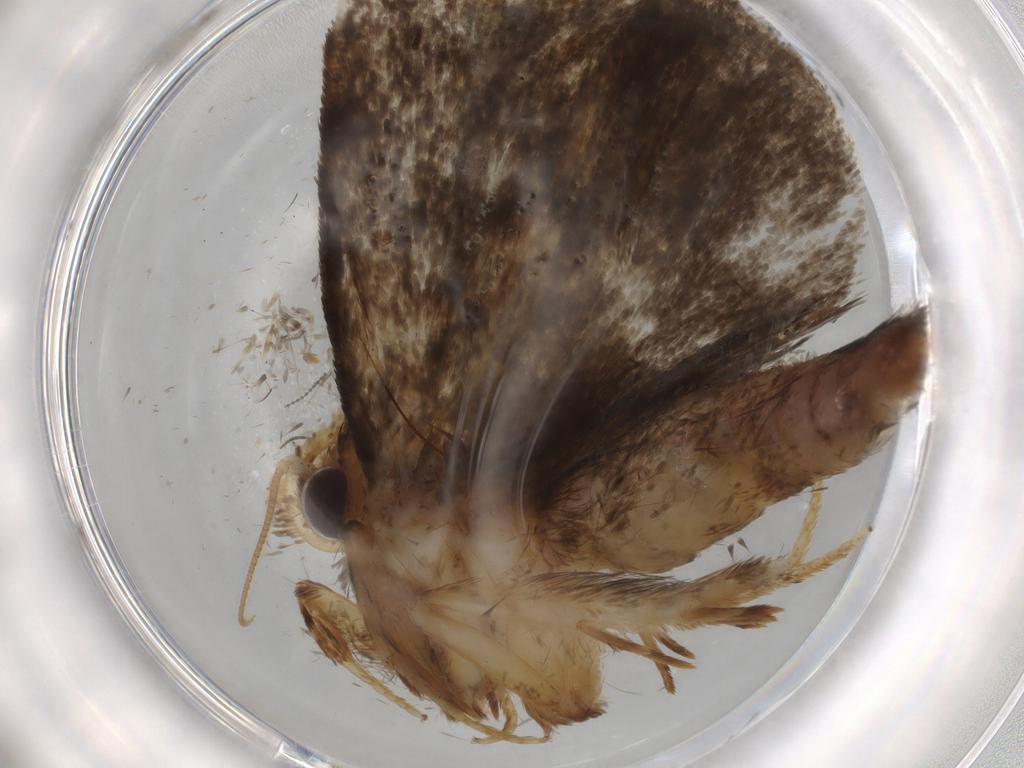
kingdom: Animalia
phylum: Arthropoda
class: Insecta
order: Lepidoptera
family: Tineidae
